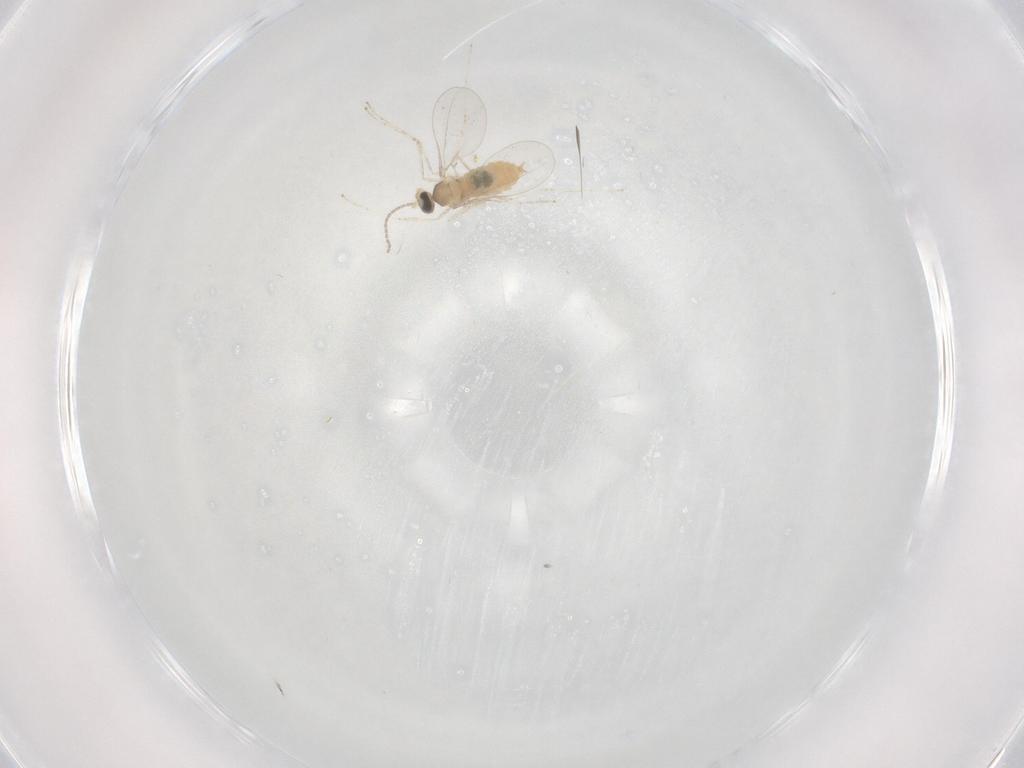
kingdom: Animalia
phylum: Arthropoda
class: Insecta
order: Diptera
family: Cecidomyiidae
